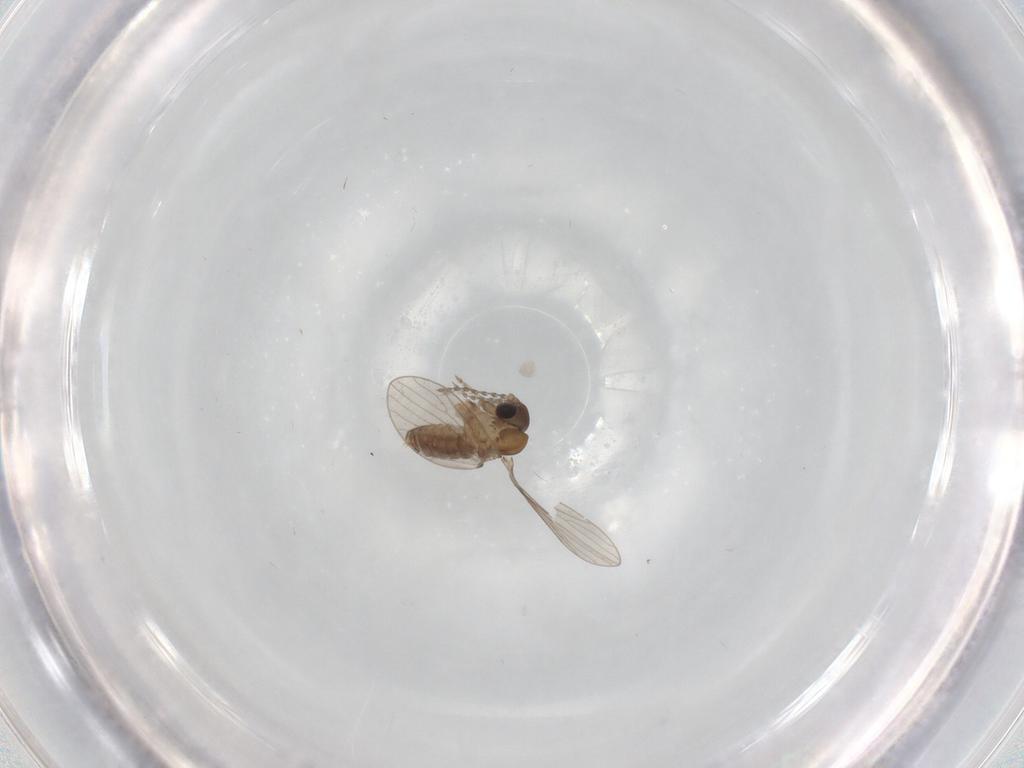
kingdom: Animalia
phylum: Arthropoda
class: Insecta
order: Diptera
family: Psychodidae
